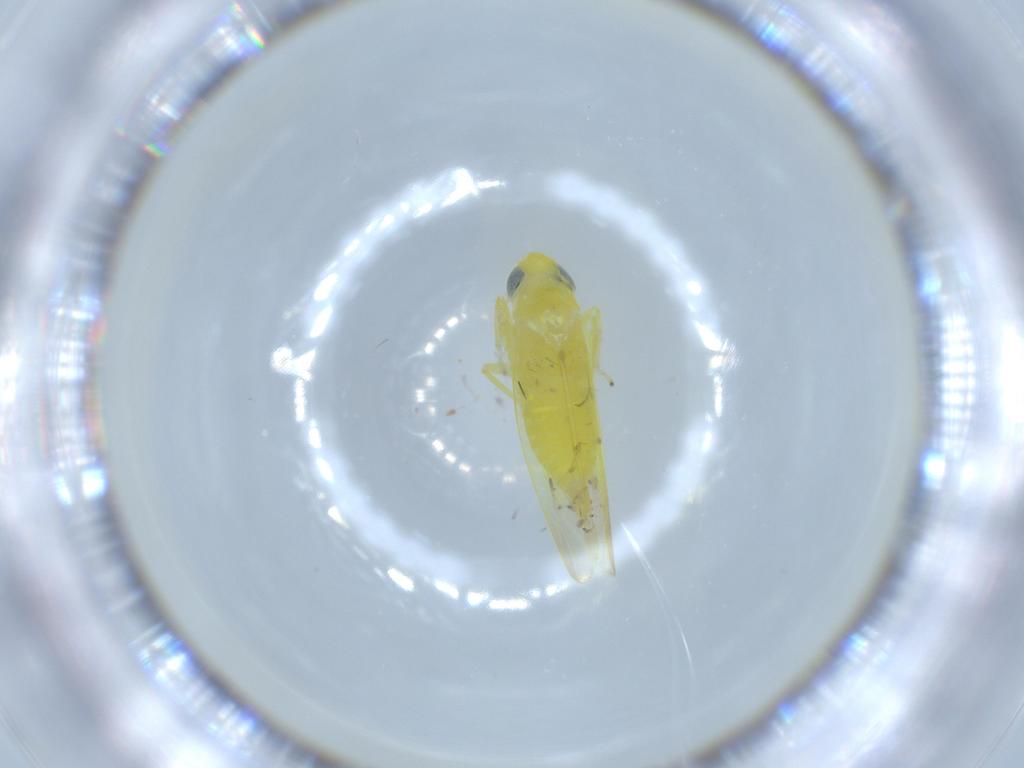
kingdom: Animalia
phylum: Arthropoda
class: Insecta
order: Hemiptera
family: Cicadellidae
